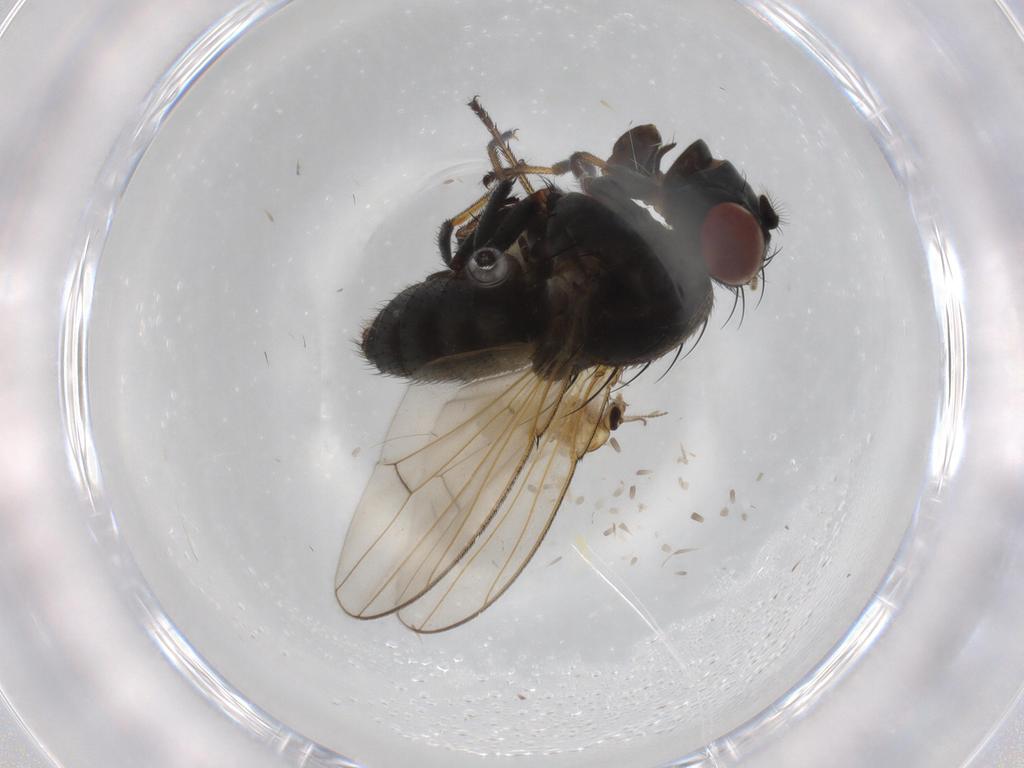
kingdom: Animalia
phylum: Arthropoda
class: Insecta
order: Diptera
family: Ephydridae
